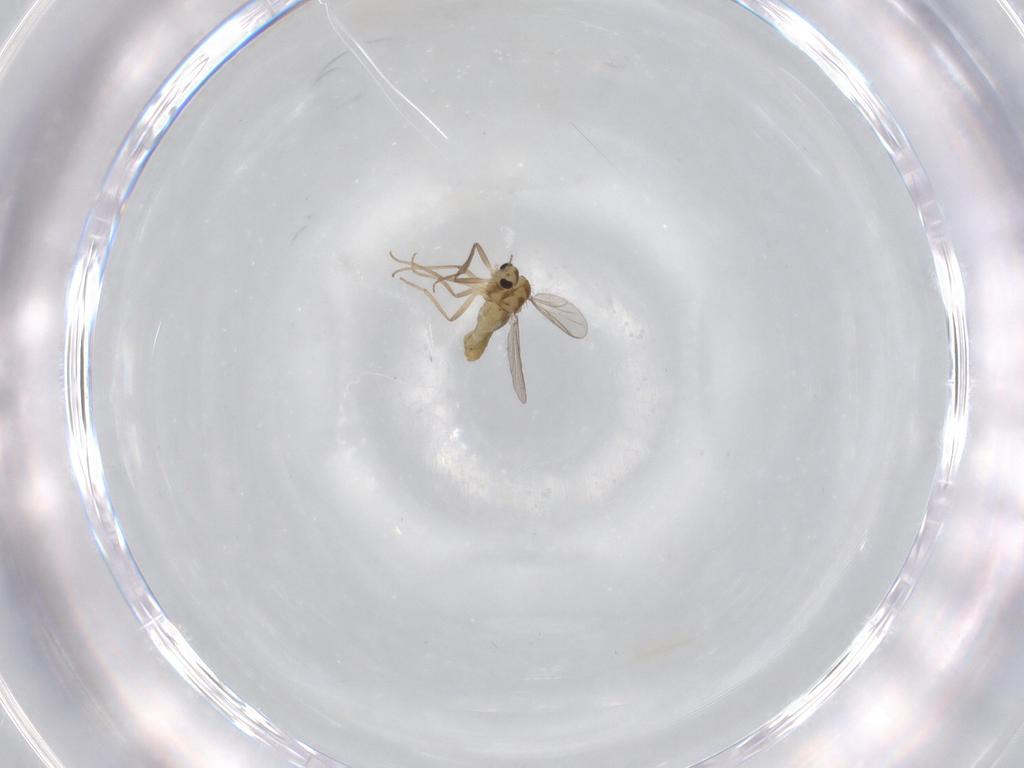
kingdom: Animalia
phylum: Arthropoda
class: Insecta
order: Diptera
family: Chironomidae
